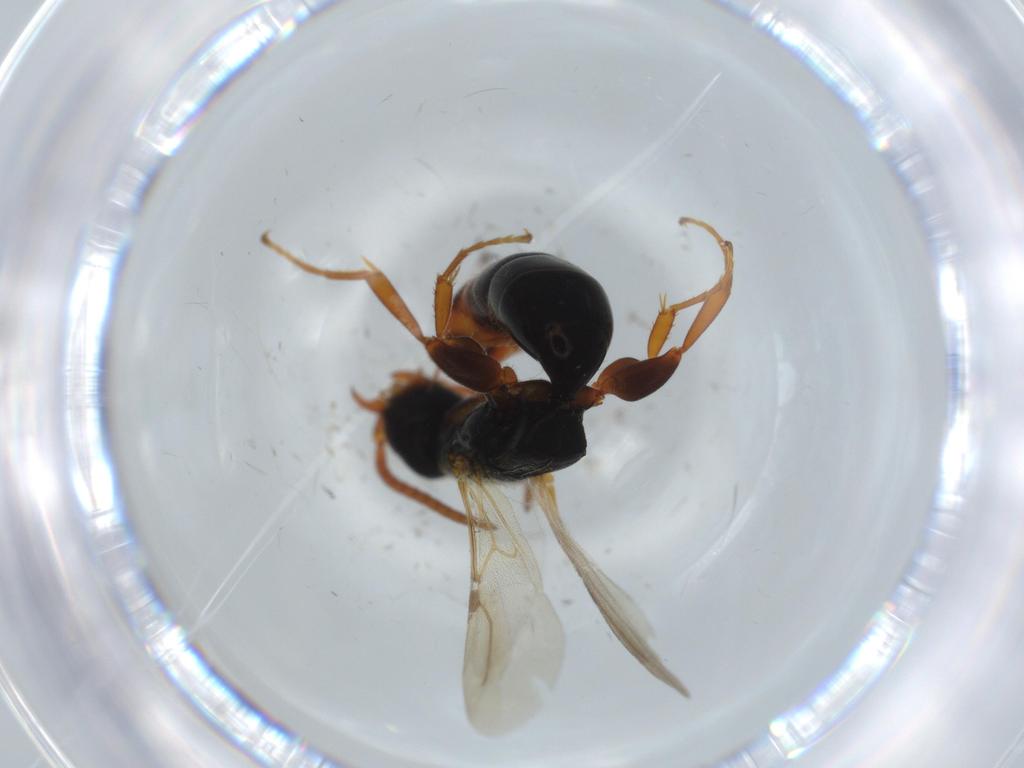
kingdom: Animalia
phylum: Arthropoda
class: Insecta
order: Hymenoptera
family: Bethylidae
